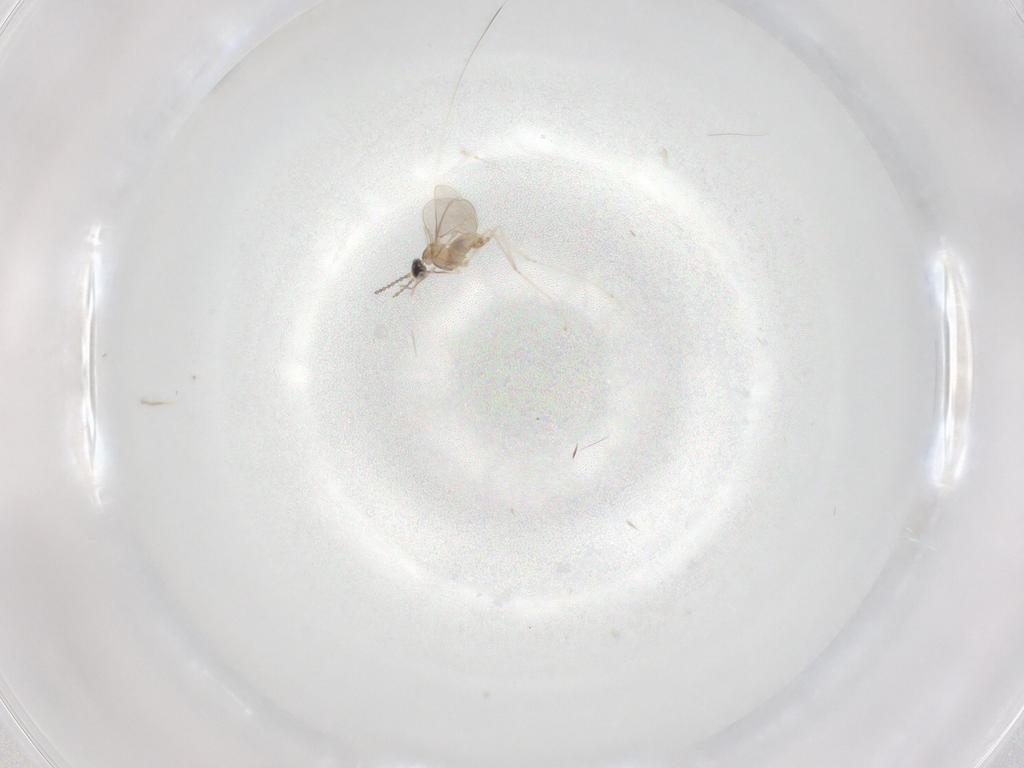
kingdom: Animalia
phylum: Arthropoda
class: Insecta
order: Diptera
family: Cecidomyiidae
